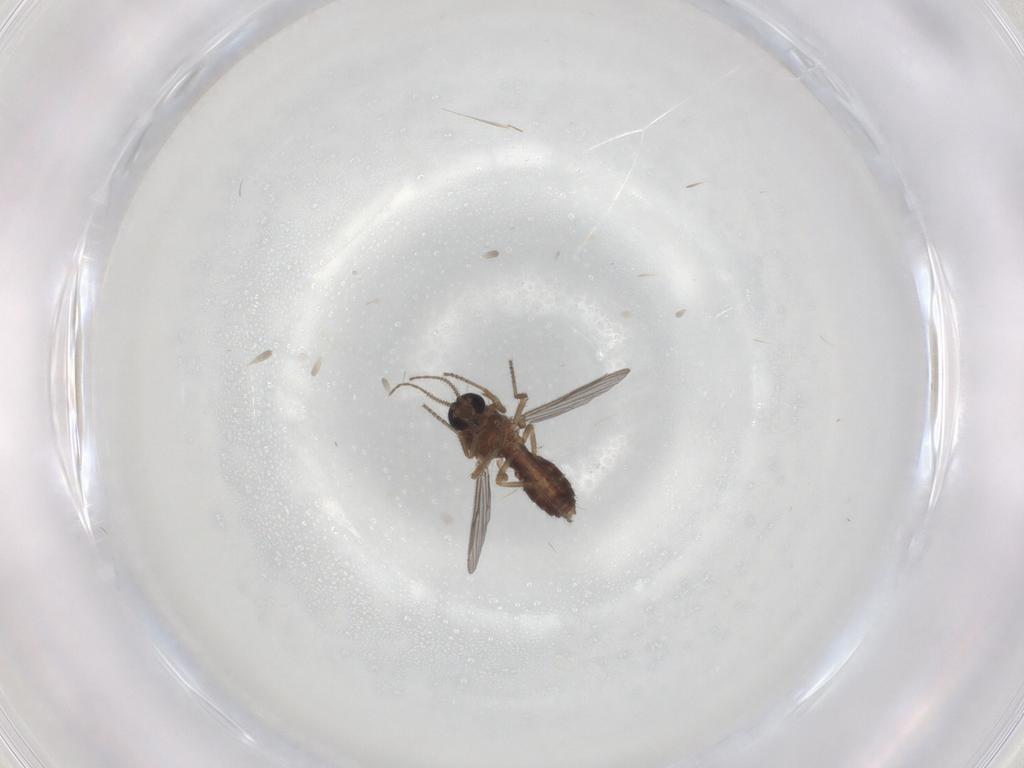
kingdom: Animalia
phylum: Arthropoda
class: Insecta
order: Diptera
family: Ceratopogonidae
